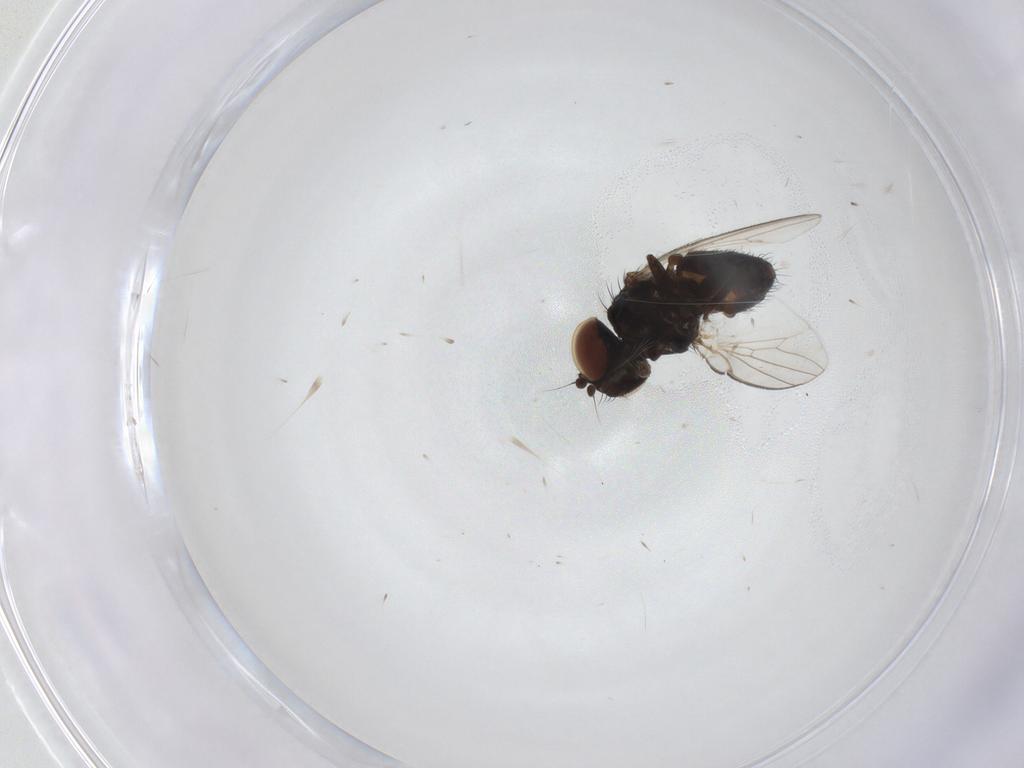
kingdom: Animalia
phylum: Arthropoda
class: Insecta
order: Diptera
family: Milichiidae
